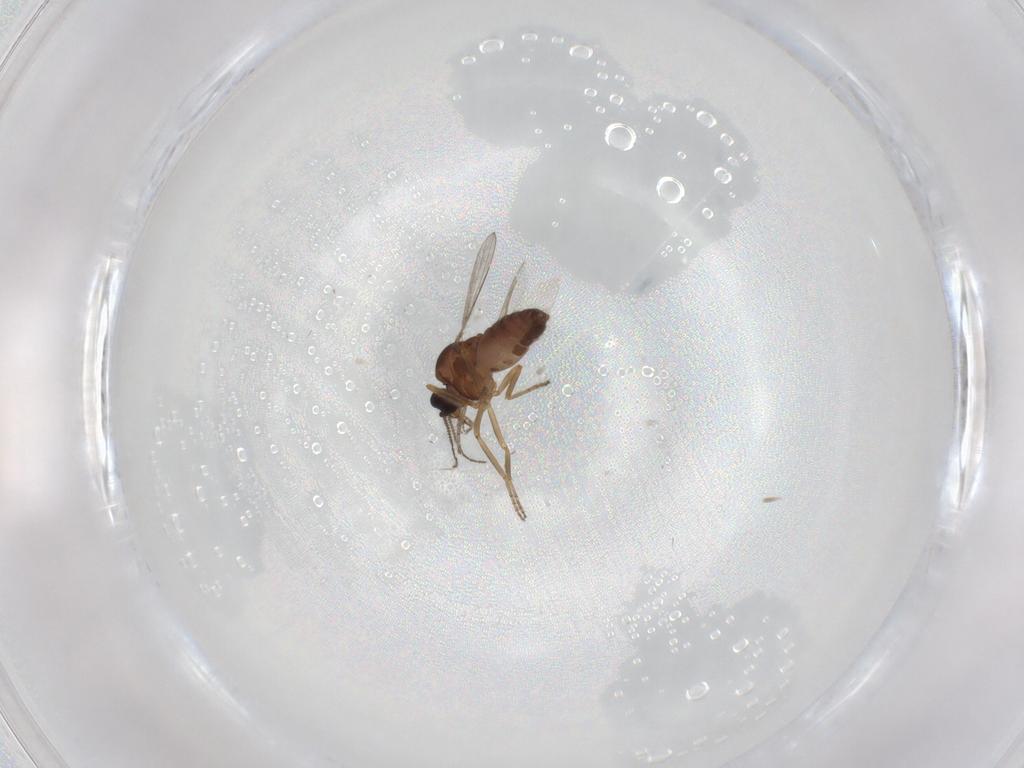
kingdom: Animalia
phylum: Arthropoda
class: Insecta
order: Diptera
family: Ceratopogonidae
